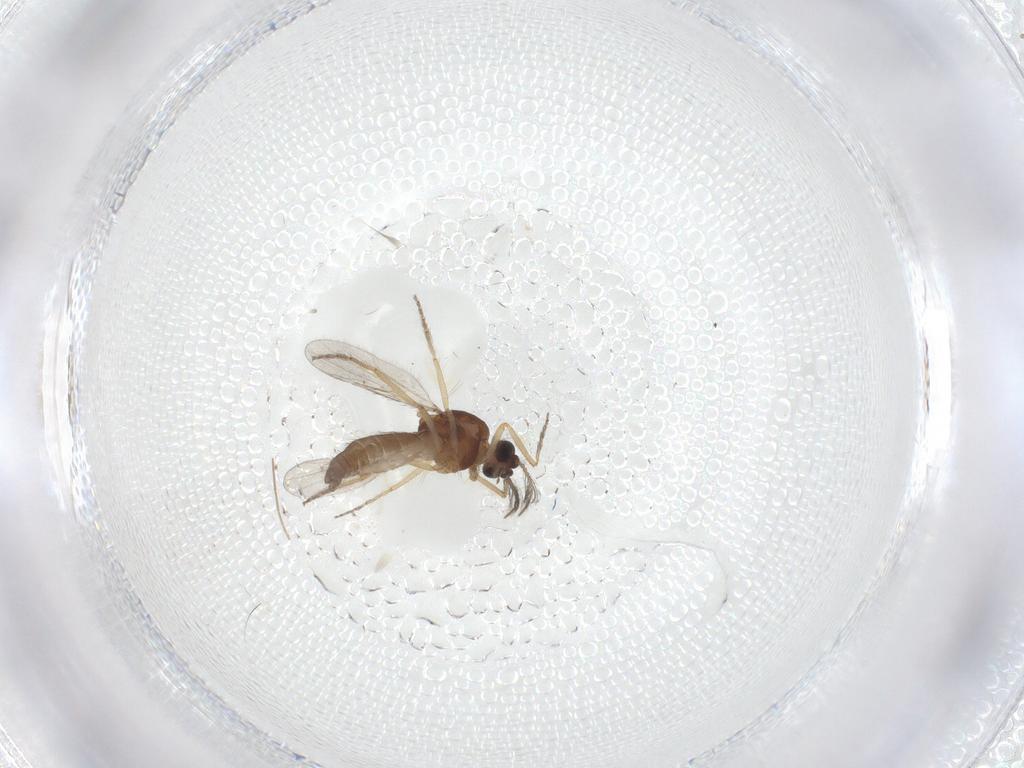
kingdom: Animalia
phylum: Arthropoda
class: Insecta
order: Diptera
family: Ceratopogonidae
